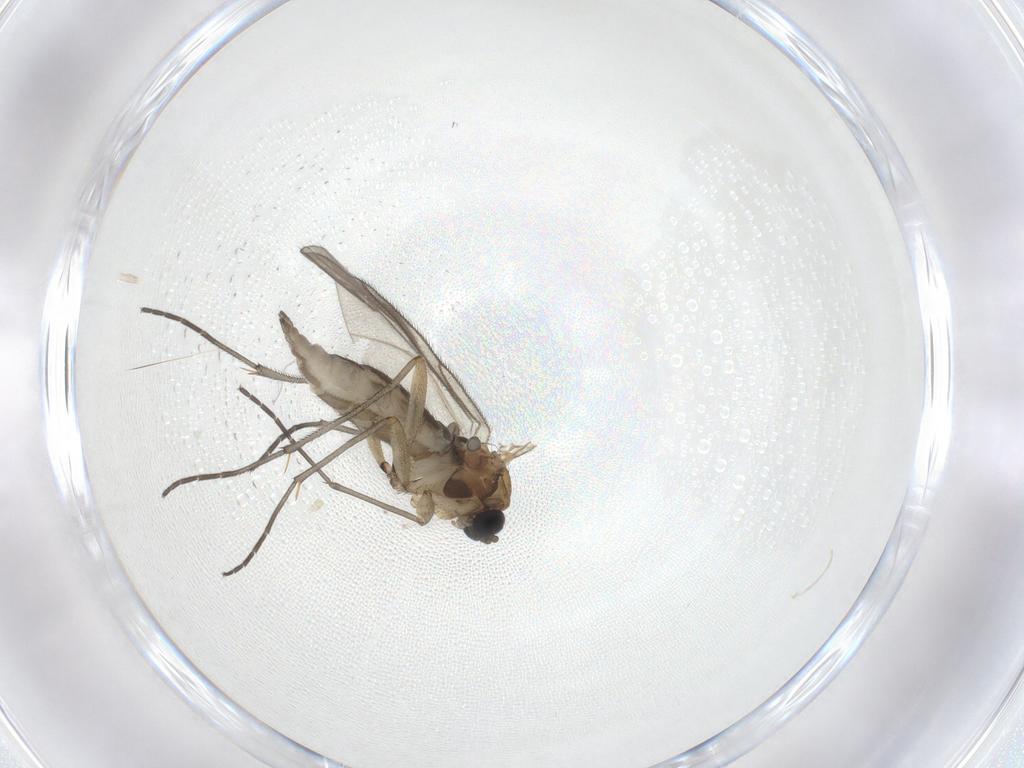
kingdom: Animalia
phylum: Arthropoda
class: Insecta
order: Diptera
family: Sciaridae
